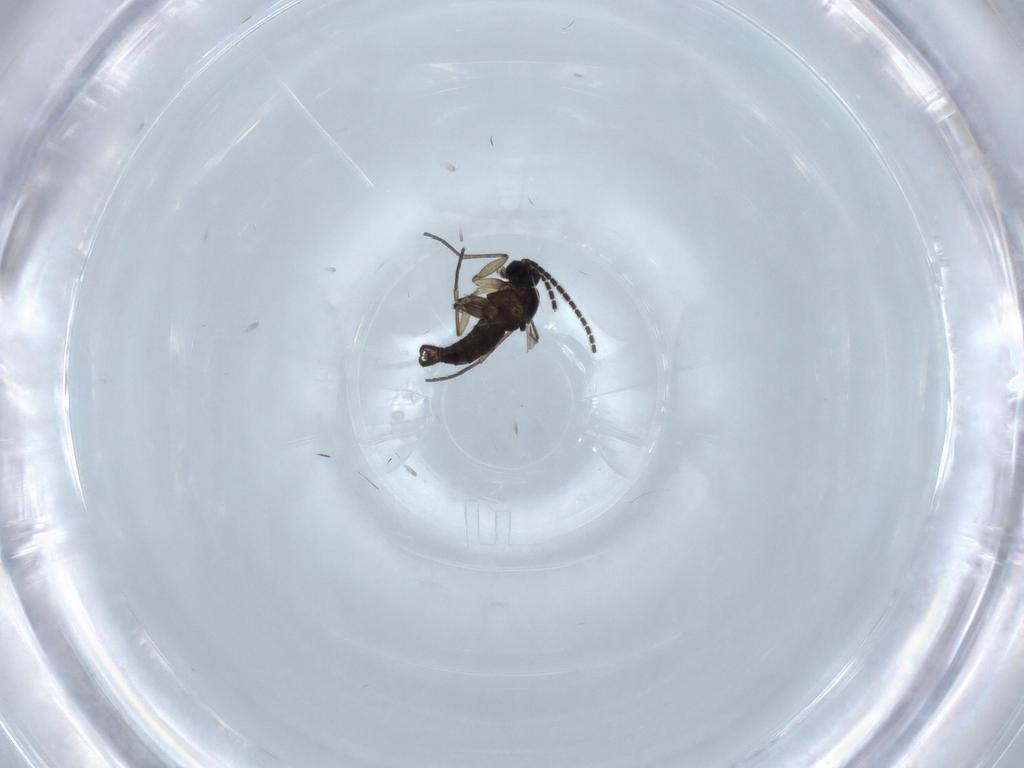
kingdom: Animalia
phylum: Arthropoda
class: Insecta
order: Diptera
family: Sciaridae
